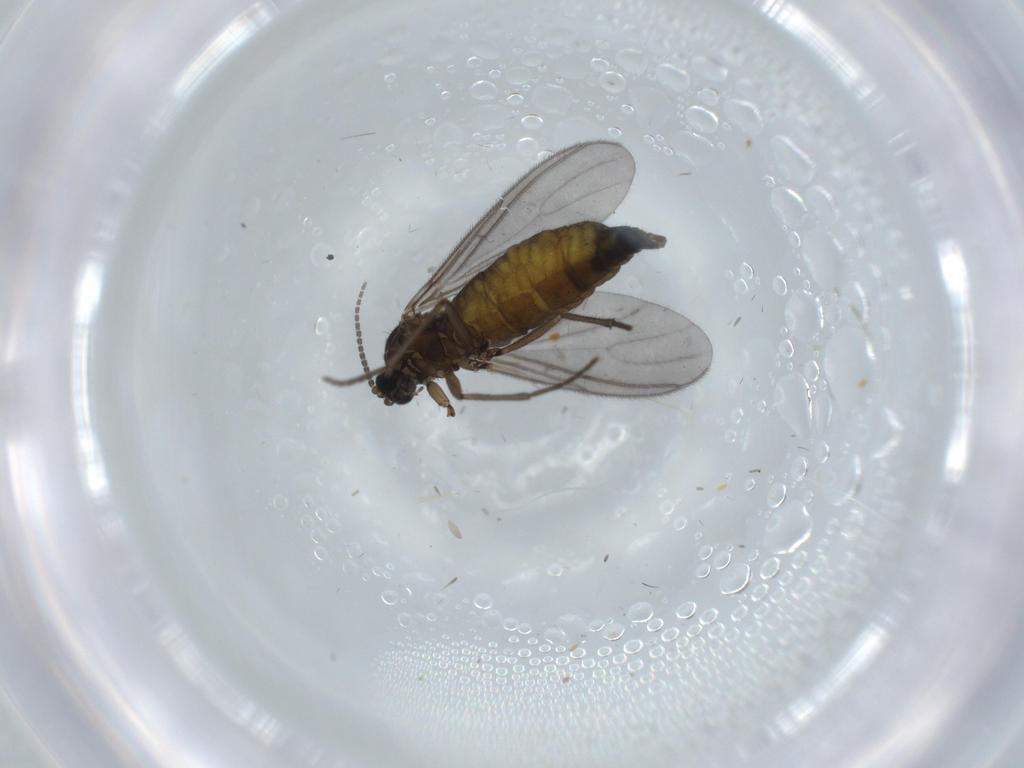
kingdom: Animalia
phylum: Arthropoda
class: Insecta
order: Diptera
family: Sciaridae
